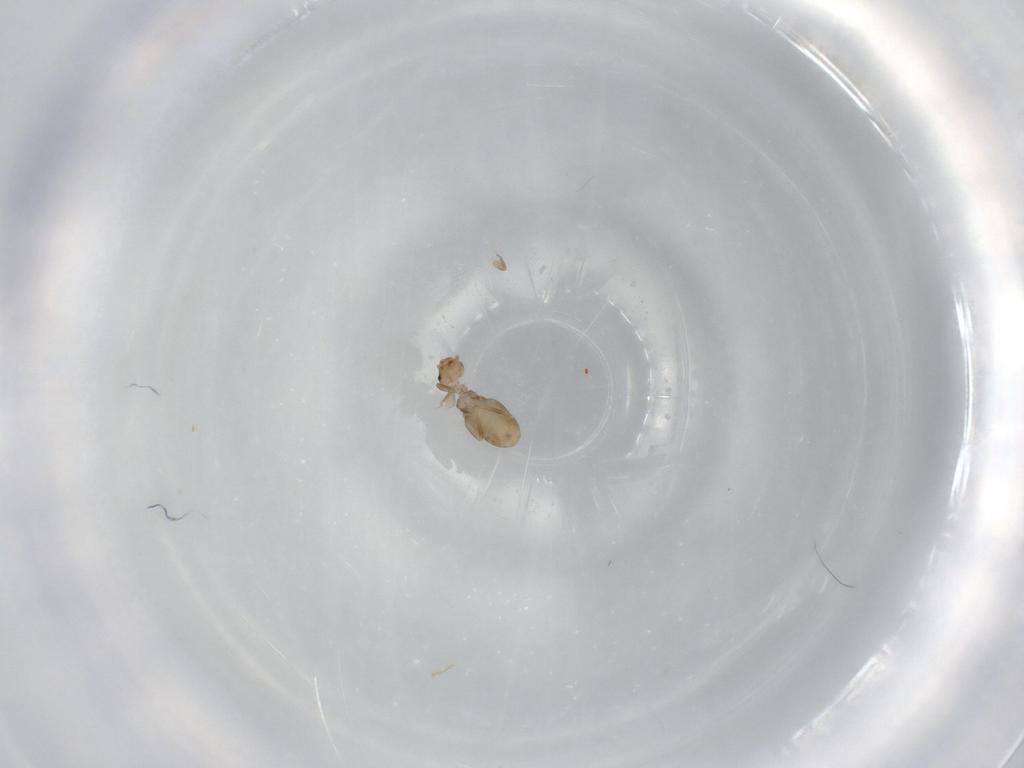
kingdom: Animalia
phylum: Arthropoda
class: Insecta
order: Psocodea
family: Liposcelididae
